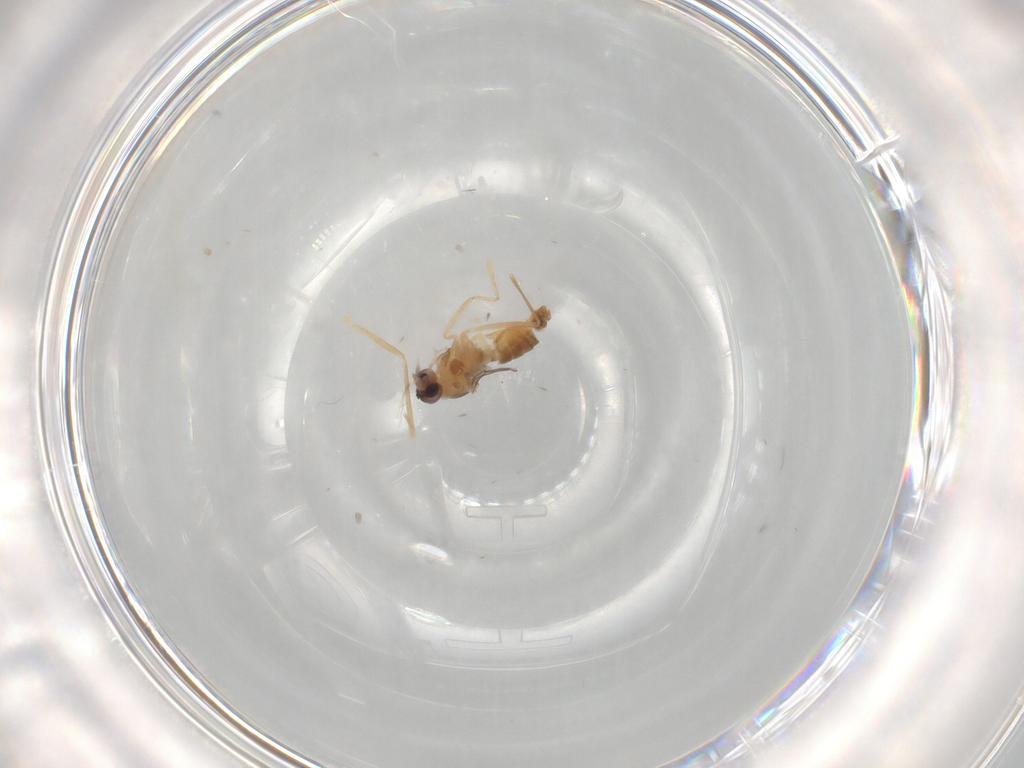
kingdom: Animalia
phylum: Arthropoda
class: Insecta
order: Diptera
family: Cecidomyiidae
